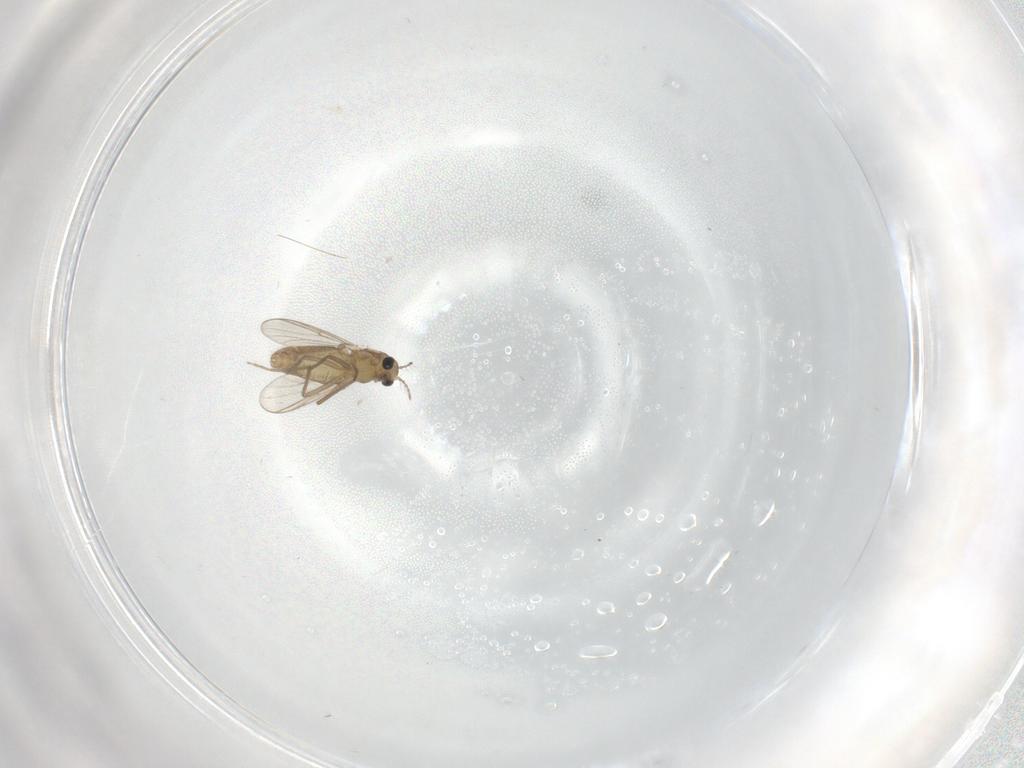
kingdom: Animalia
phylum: Arthropoda
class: Insecta
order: Diptera
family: Chironomidae
